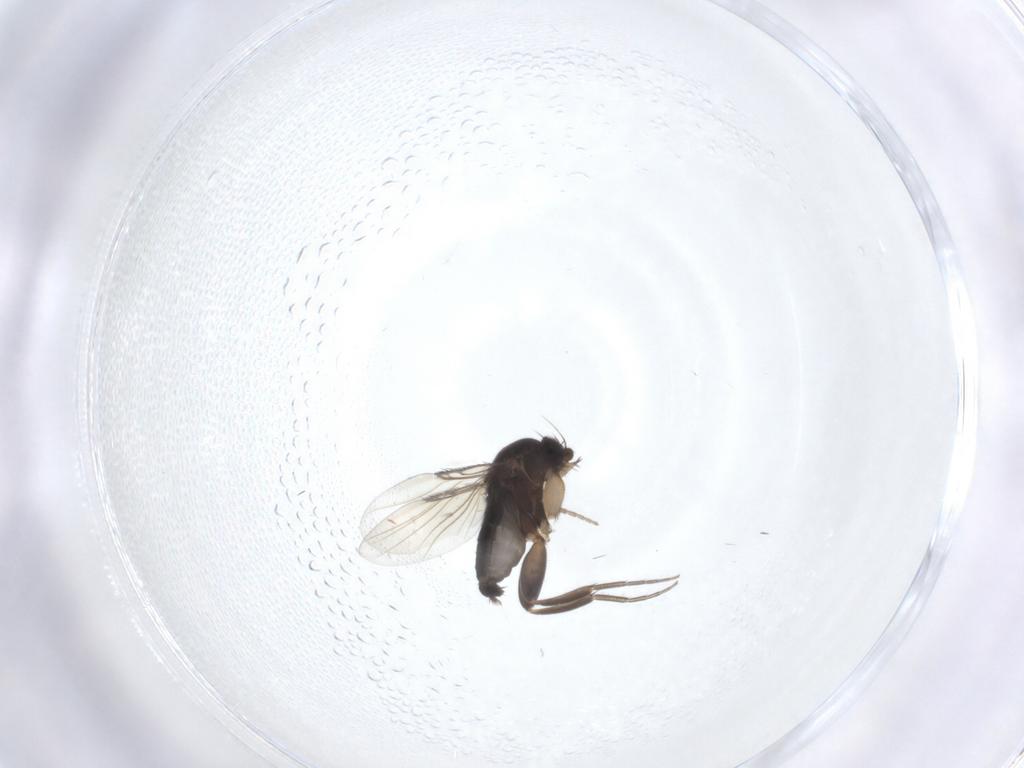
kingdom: Animalia
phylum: Arthropoda
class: Insecta
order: Diptera
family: Phoridae
